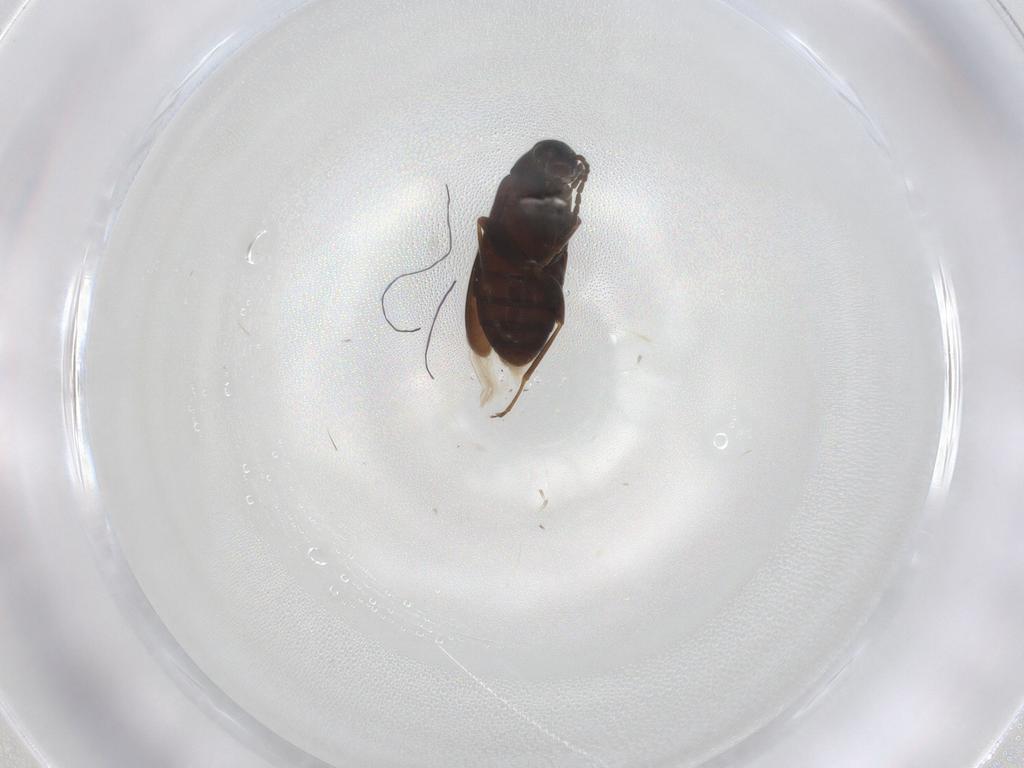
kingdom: Animalia
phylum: Arthropoda
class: Insecta
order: Coleoptera
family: Scraptiidae
